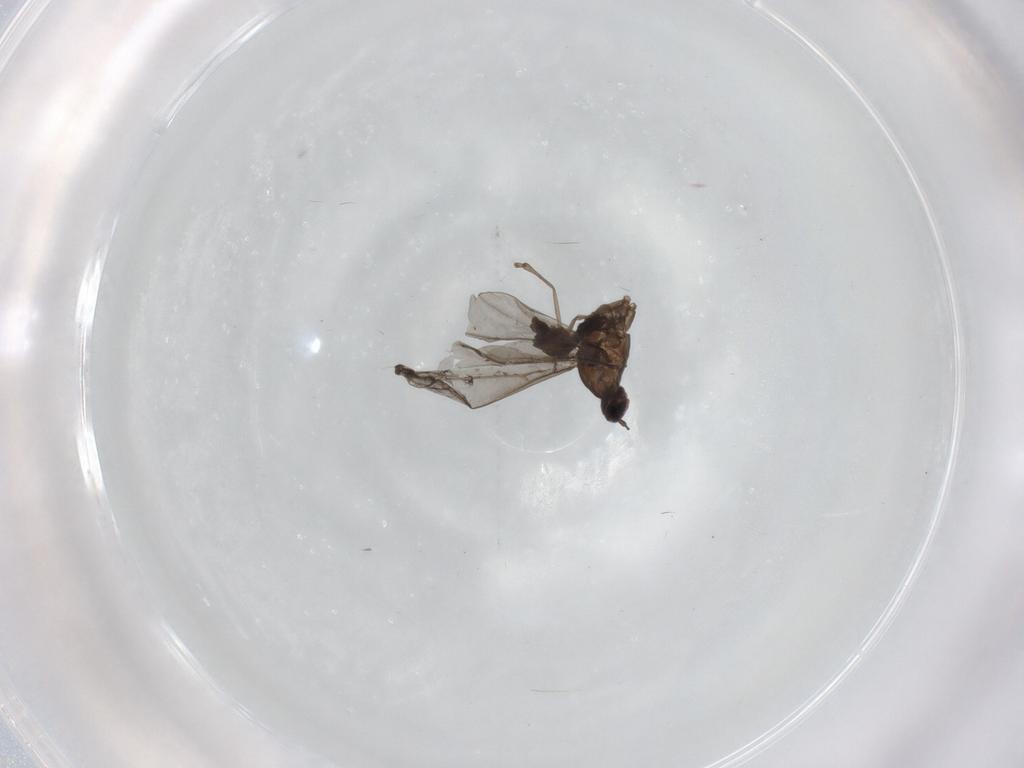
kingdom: Animalia
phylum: Arthropoda
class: Insecta
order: Diptera
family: Cecidomyiidae
